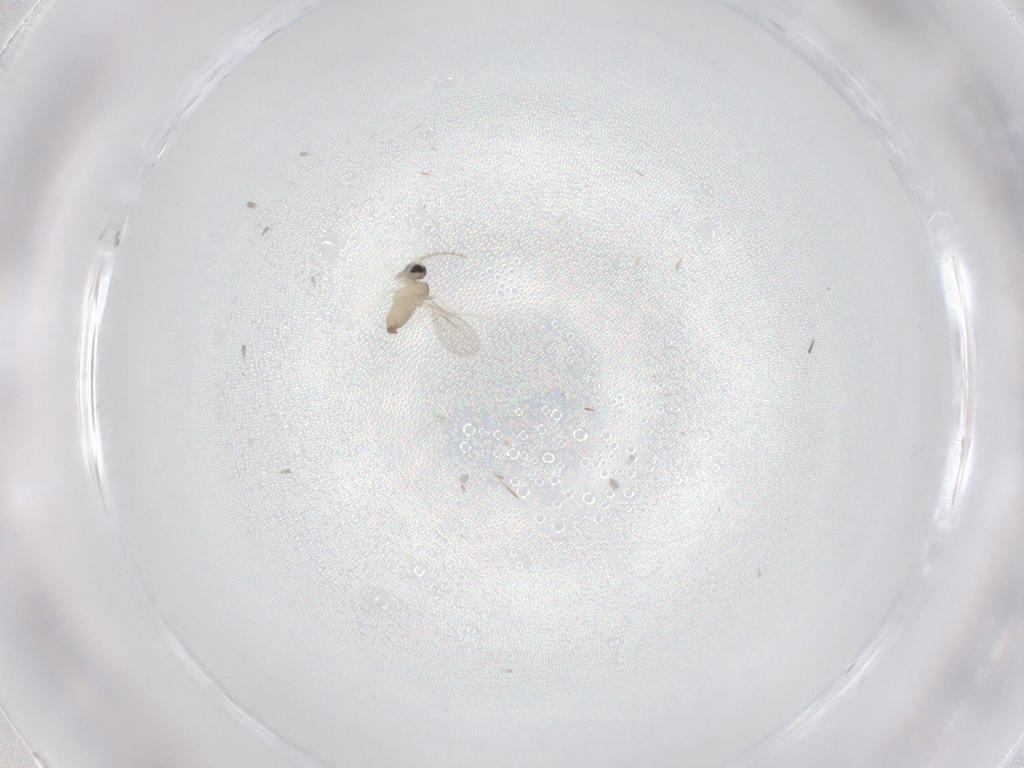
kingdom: Animalia
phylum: Arthropoda
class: Insecta
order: Diptera
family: Cecidomyiidae
